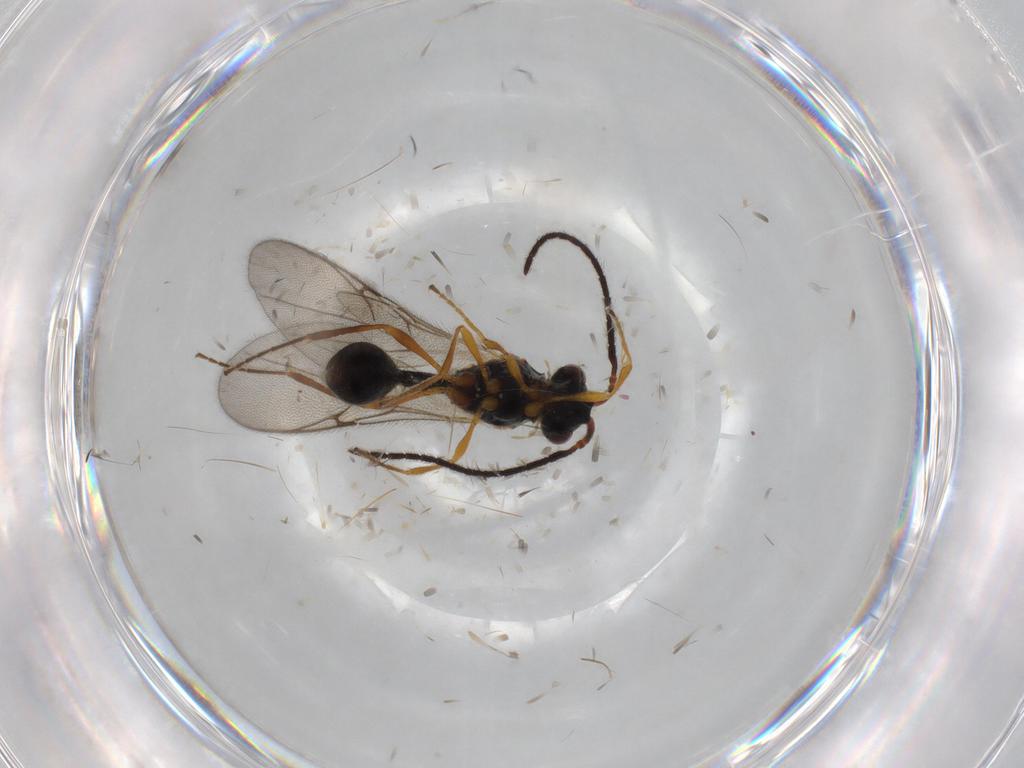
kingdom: Animalia
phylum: Arthropoda
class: Insecta
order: Hymenoptera
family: Formicidae
